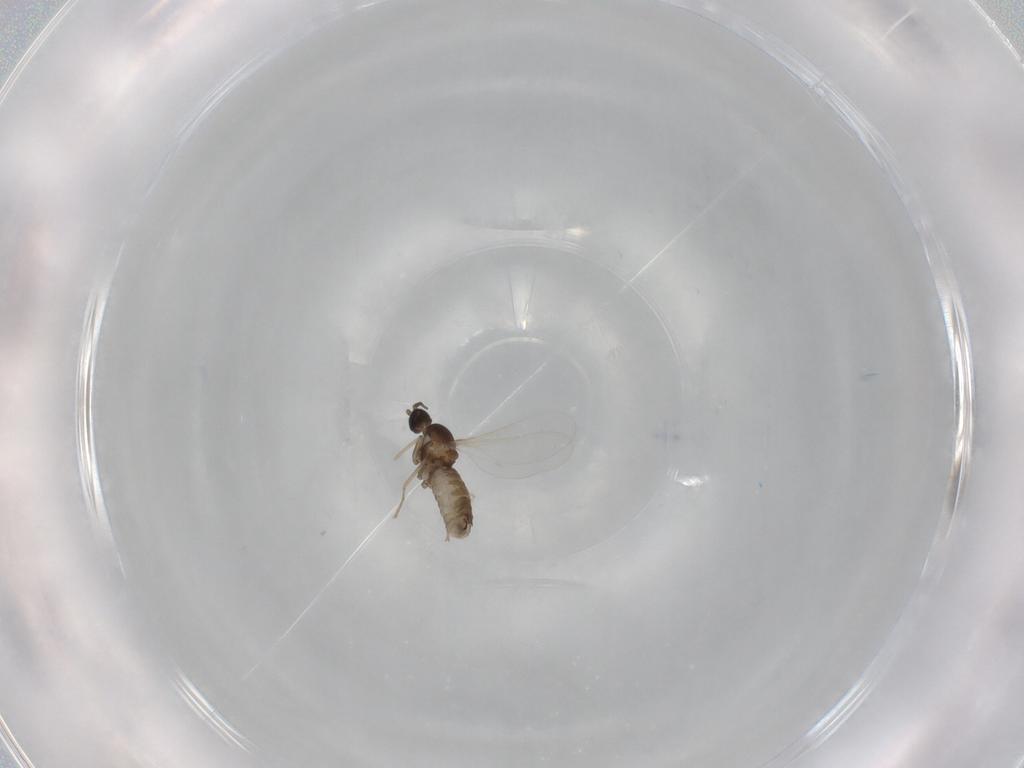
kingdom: Animalia
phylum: Arthropoda
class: Insecta
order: Diptera
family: Cecidomyiidae
